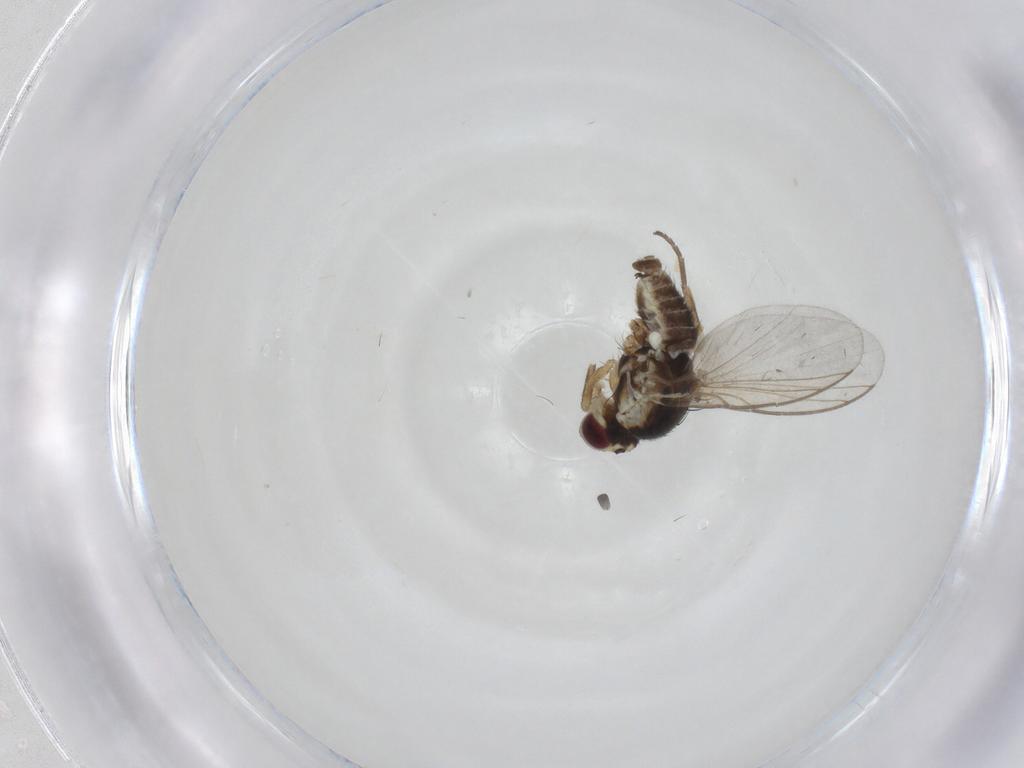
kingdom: Animalia
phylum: Arthropoda
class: Insecta
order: Diptera
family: Agromyzidae
